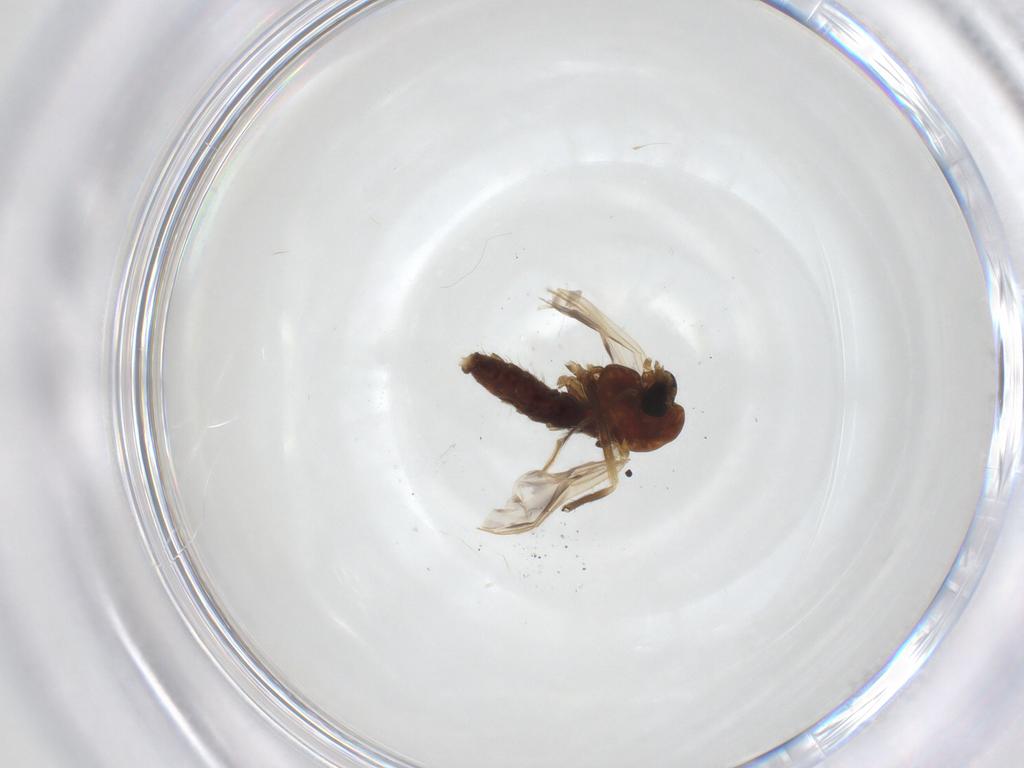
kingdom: Animalia
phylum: Arthropoda
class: Insecta
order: Diptera
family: Chironomidae
